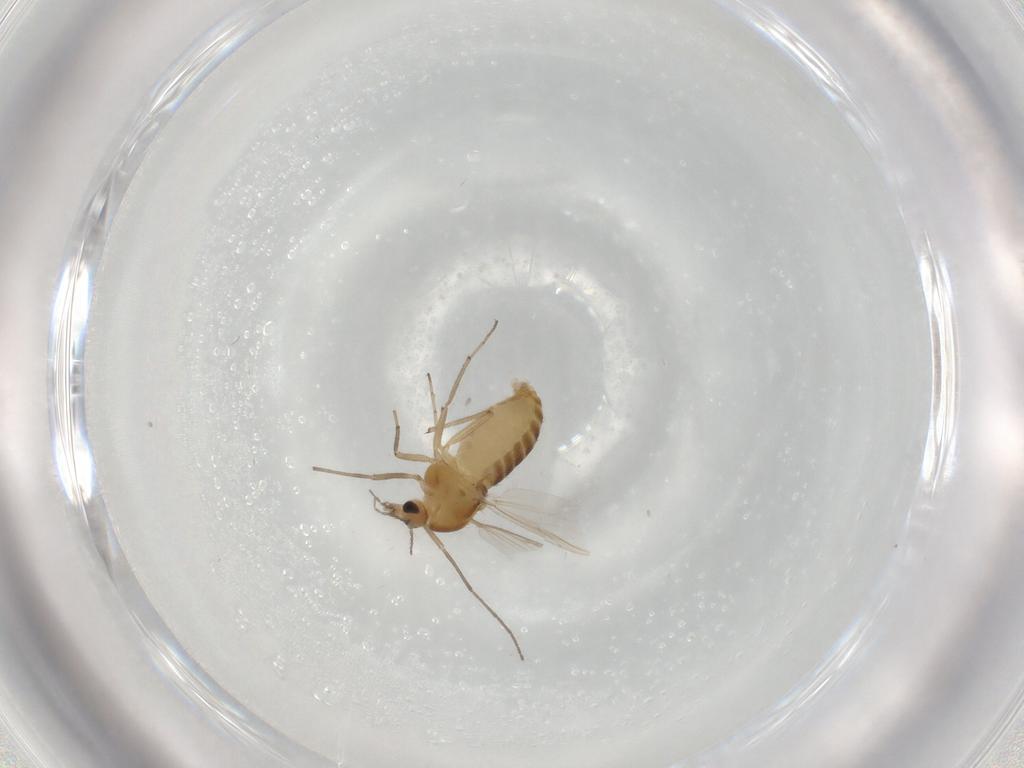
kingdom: Animalia
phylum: Arthropoda
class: Insecta
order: Diptera
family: Chironomidae
